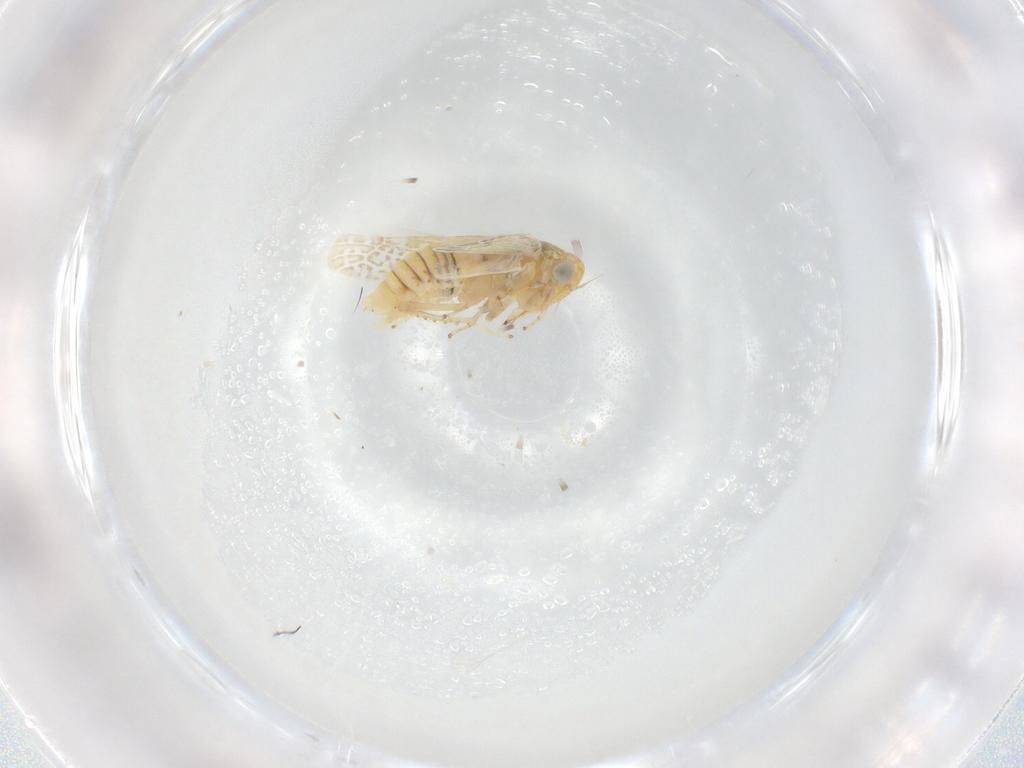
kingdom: Animalia
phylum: Arthropoda
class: Insecta
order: Hemiptera
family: Cicadellidae
